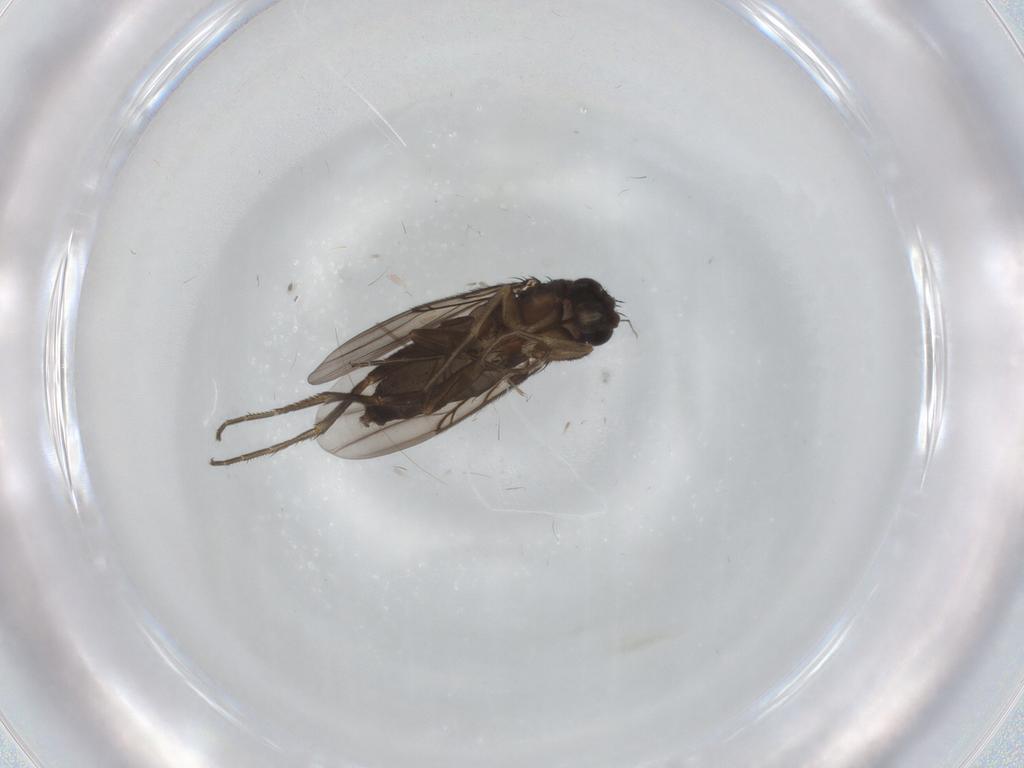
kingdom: Animalia
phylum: Arthropoda
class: Insecta
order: Diptera
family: Phoridae
